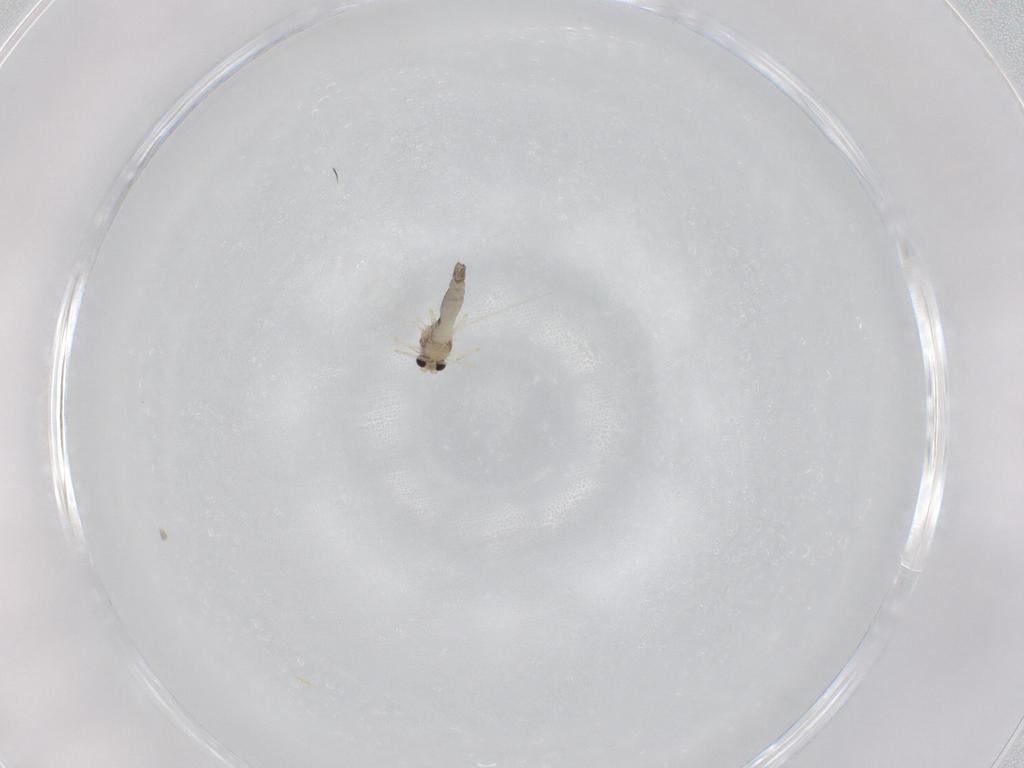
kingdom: Animalia
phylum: Arthropoda
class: Insecta
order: Diptera
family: Chironomidae
